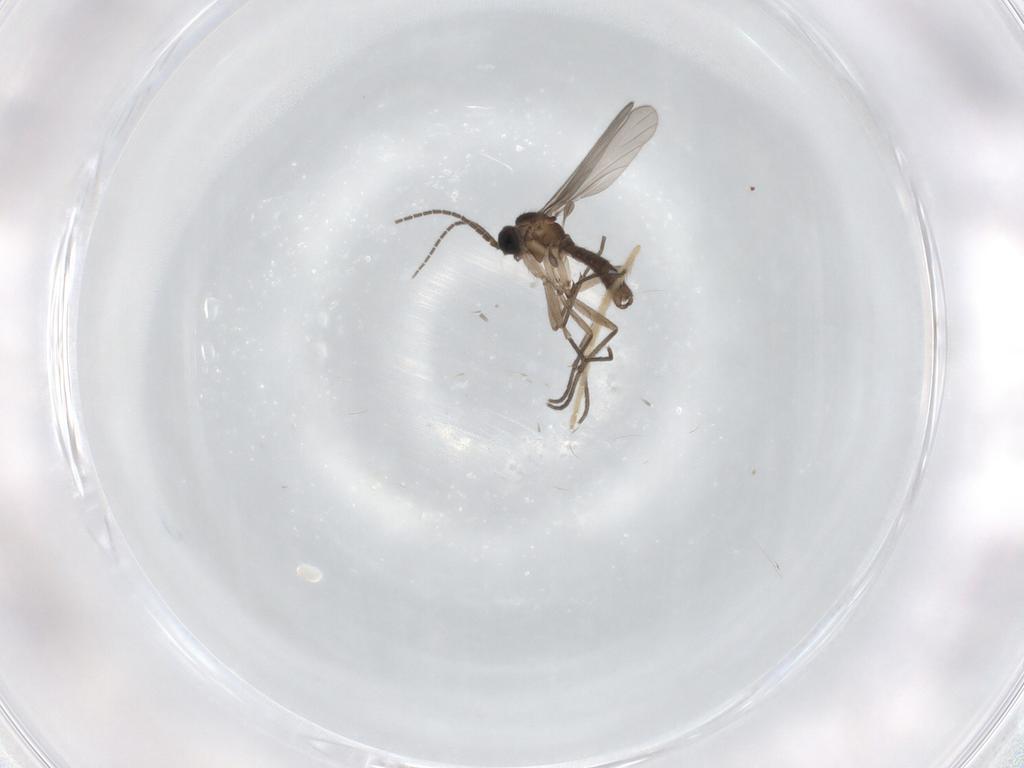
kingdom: Animalia
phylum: Arthropoda
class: Insecta
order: Diptera
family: Sciaridae
